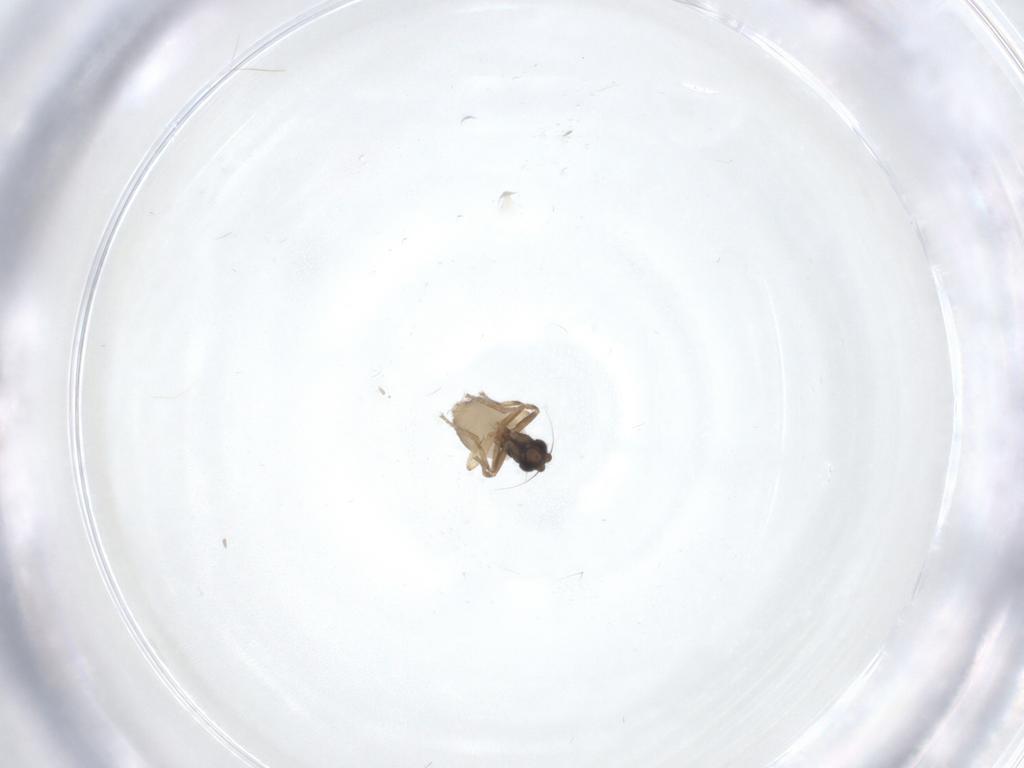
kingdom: Animalia
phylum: Arthropoda
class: Insecta
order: Diptera
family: Phoridae
